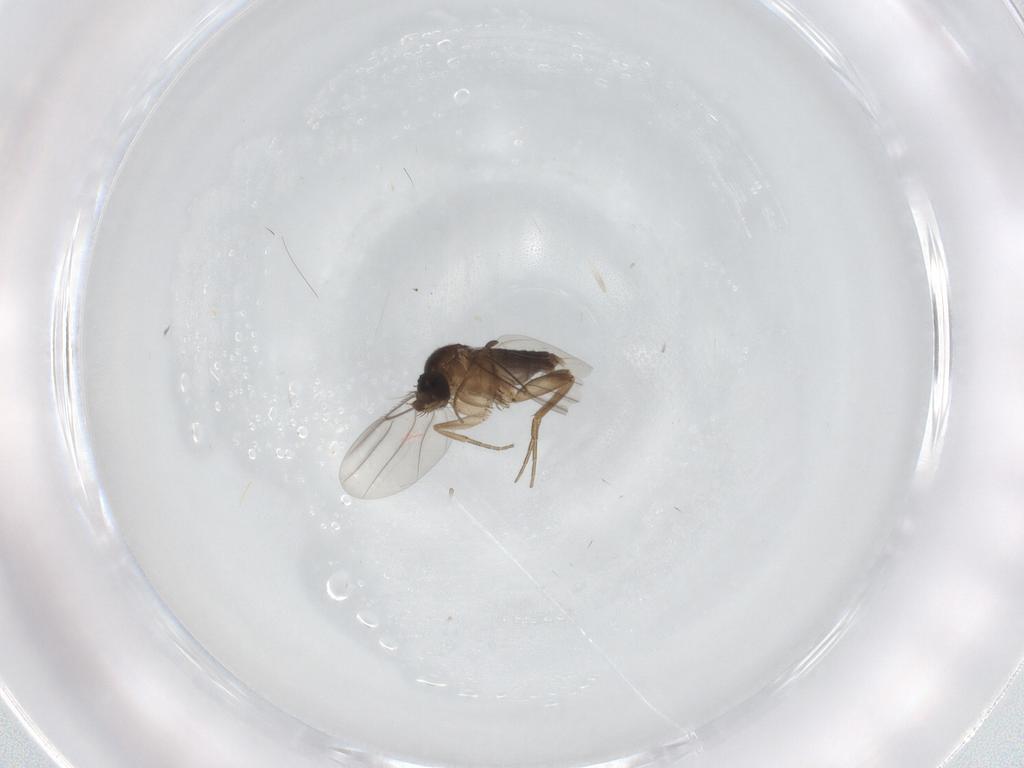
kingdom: Animalia
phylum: Arthropoda
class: Insecta
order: Diptera
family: Phoridae
